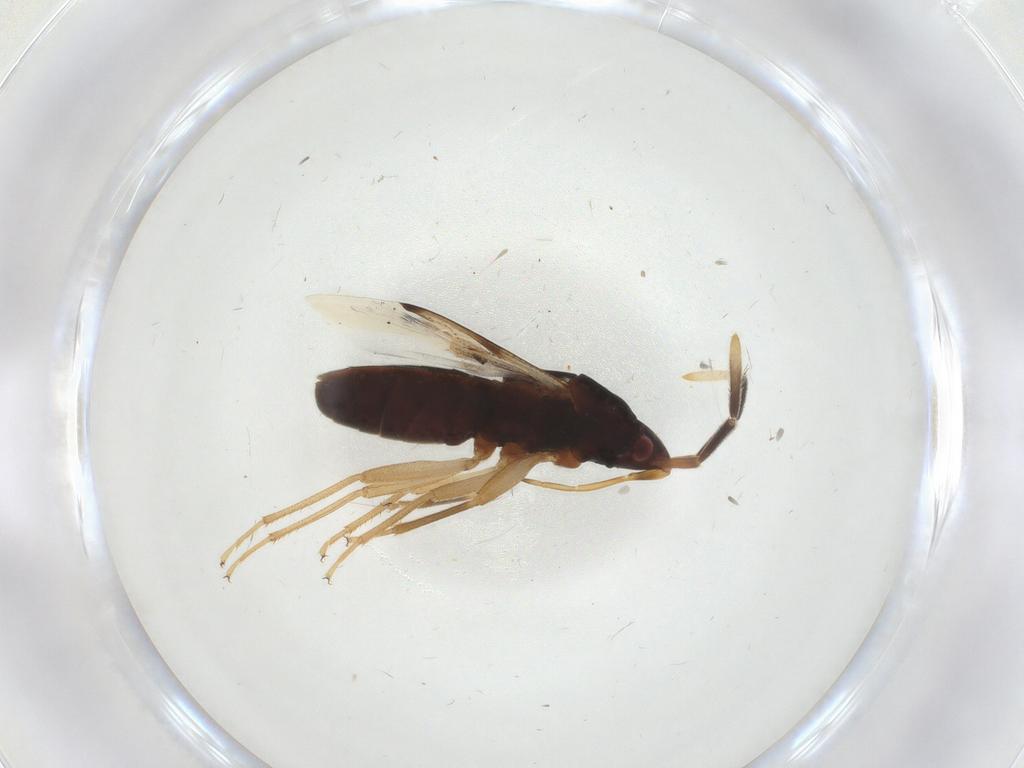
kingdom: Animalia
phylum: Arthropoda
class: Insecta
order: Hemiptera
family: Rhyparochromidae
